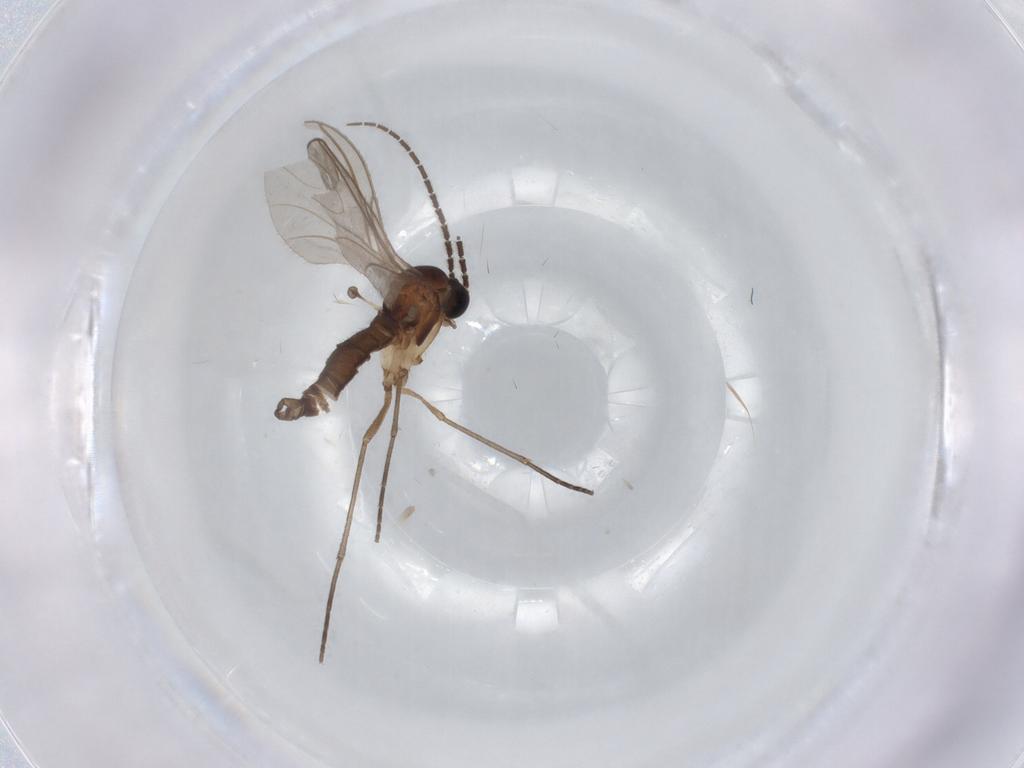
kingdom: Animalia
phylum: Arthropoda
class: Insecta
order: Diptera
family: Sciaridae
